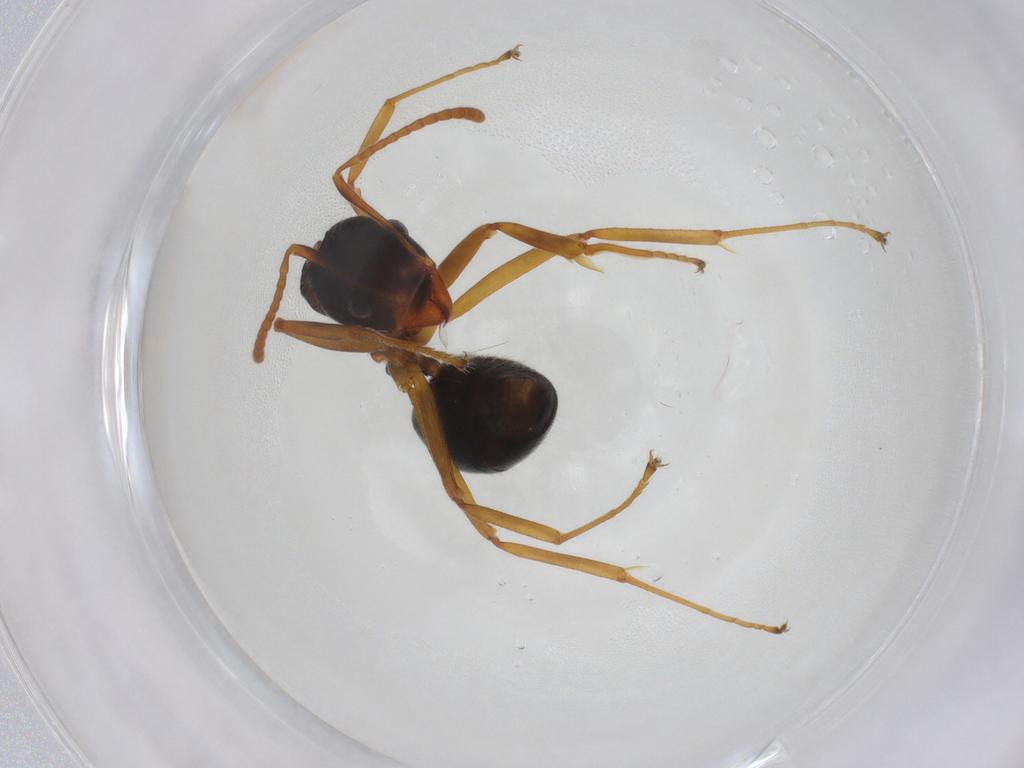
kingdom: Animalia
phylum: Arthropoda
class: Insecta
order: Hymenoptera
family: Formicidae
